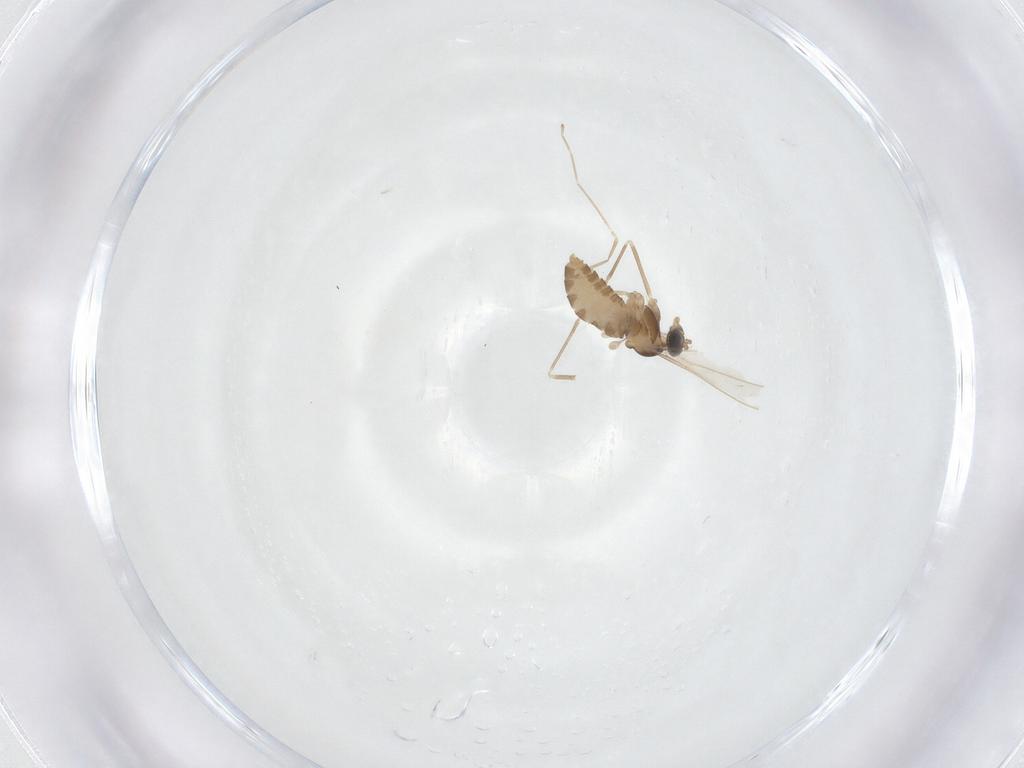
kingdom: Animalia
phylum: Arthropoda
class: Insecta
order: Diptera
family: Cecidomyiidae
